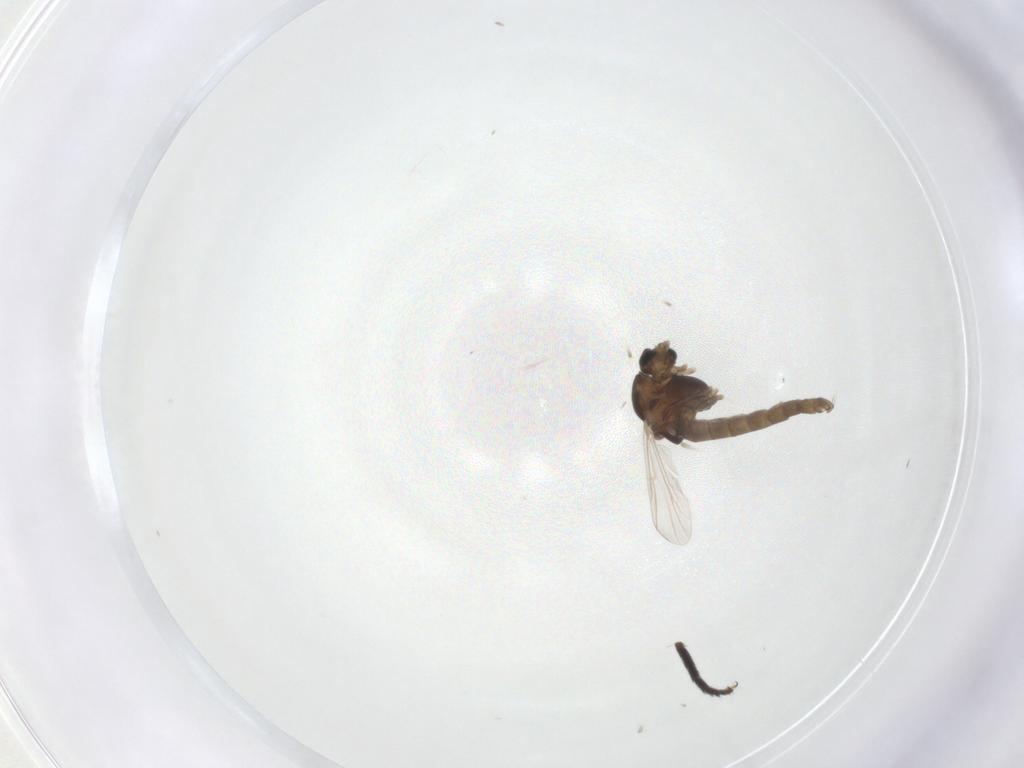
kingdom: Animalia
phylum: Arthropoda
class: Insecta
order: Diptera
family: Chironomidae
